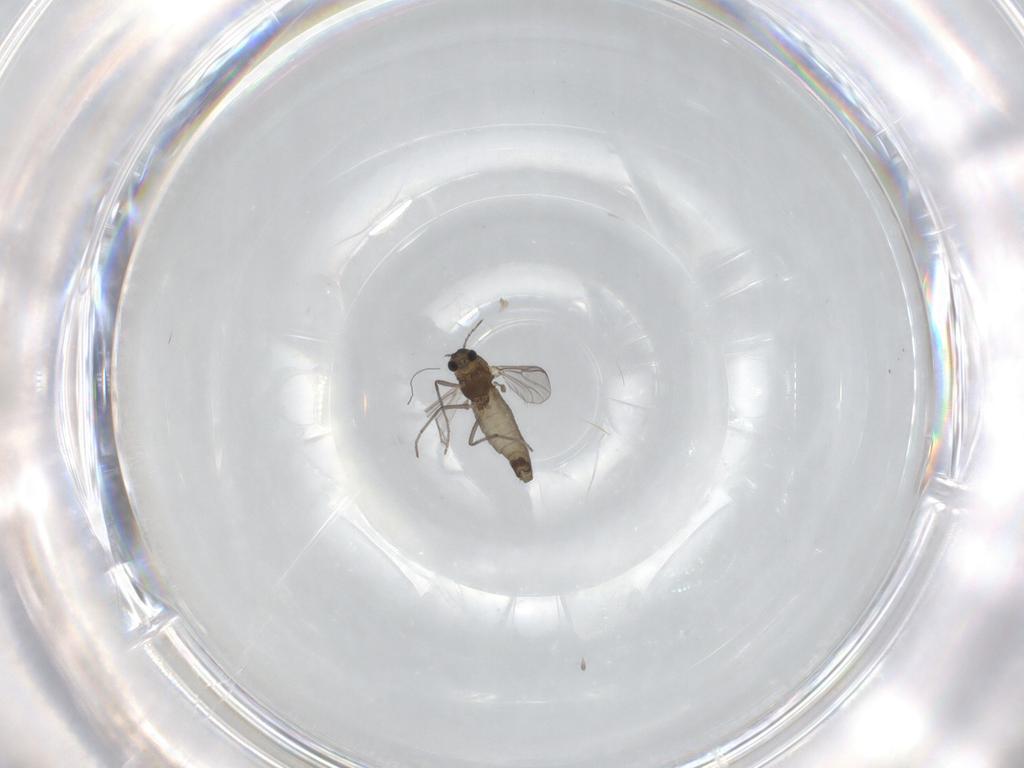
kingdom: Animalia
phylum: Arthropoda
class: Insecta
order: Diptera
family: Chironomidae
